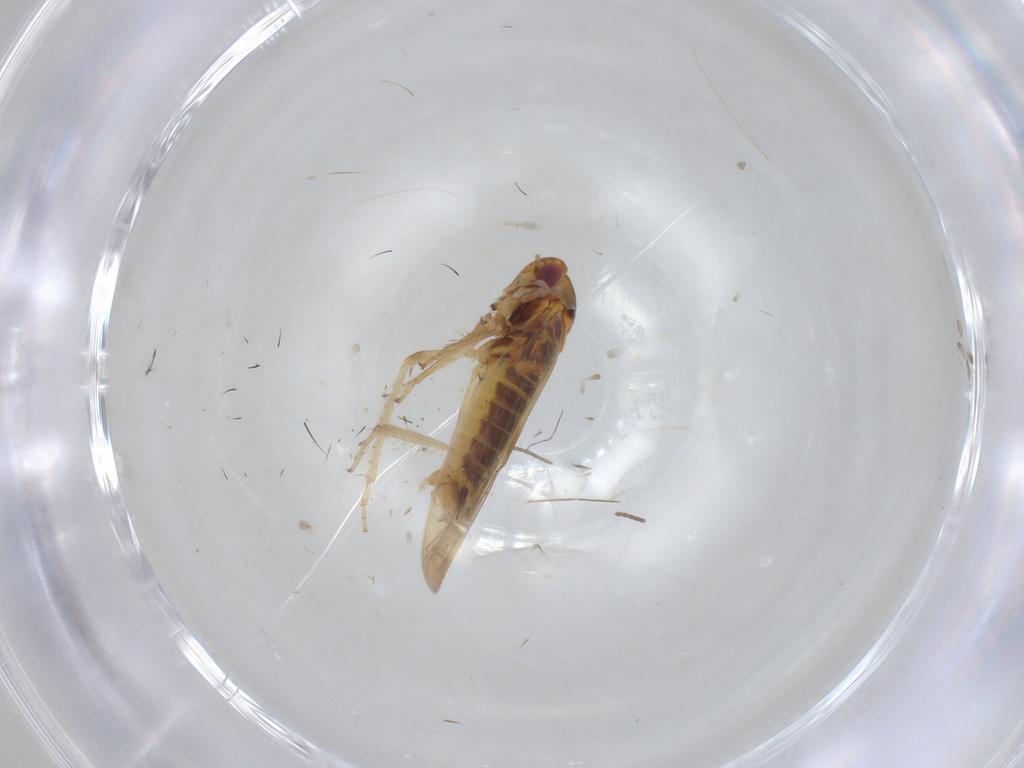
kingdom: Animalia
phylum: Arthropoda
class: Insecta
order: Hemiptera
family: Cicadellidae
